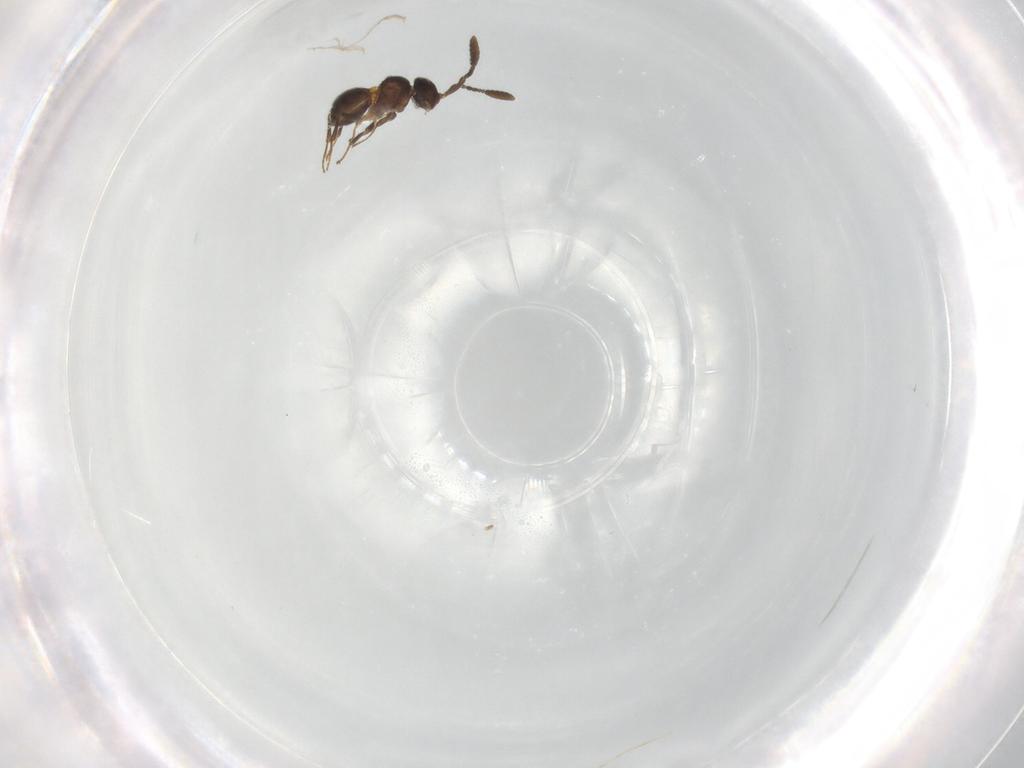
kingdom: Animalia
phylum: Arthropoda
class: Insecta
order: Hymenoptera
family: Scelionidae
